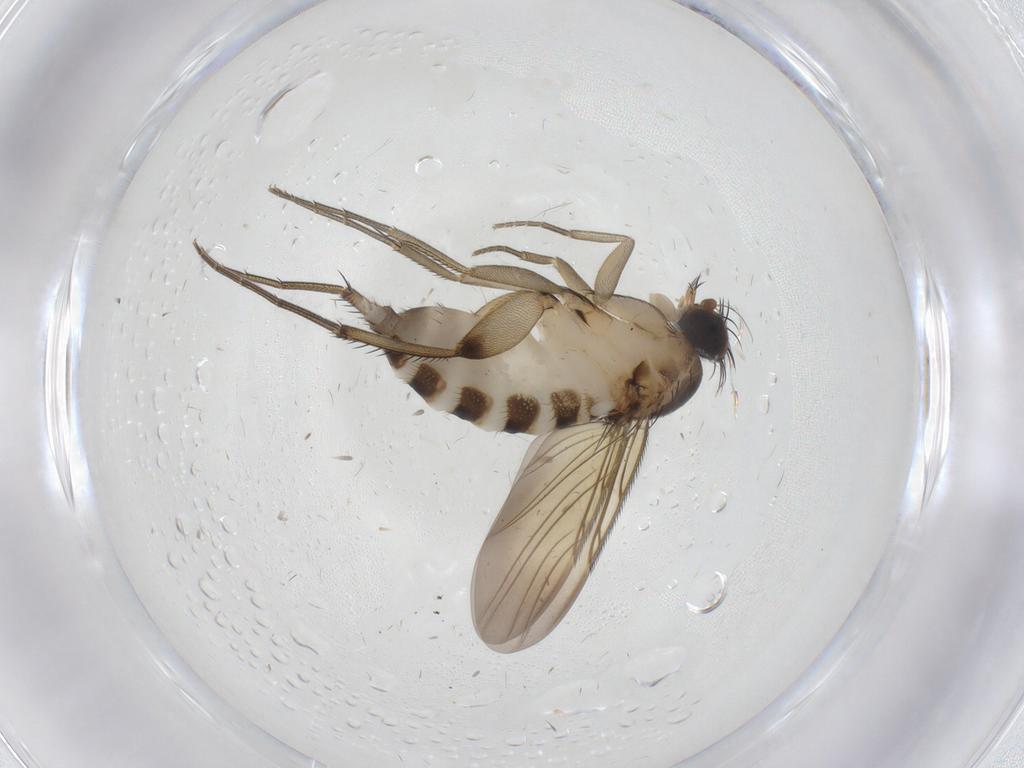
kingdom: Animalia
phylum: Arthropoda
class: Insecta
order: Diptera
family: Phoridae
